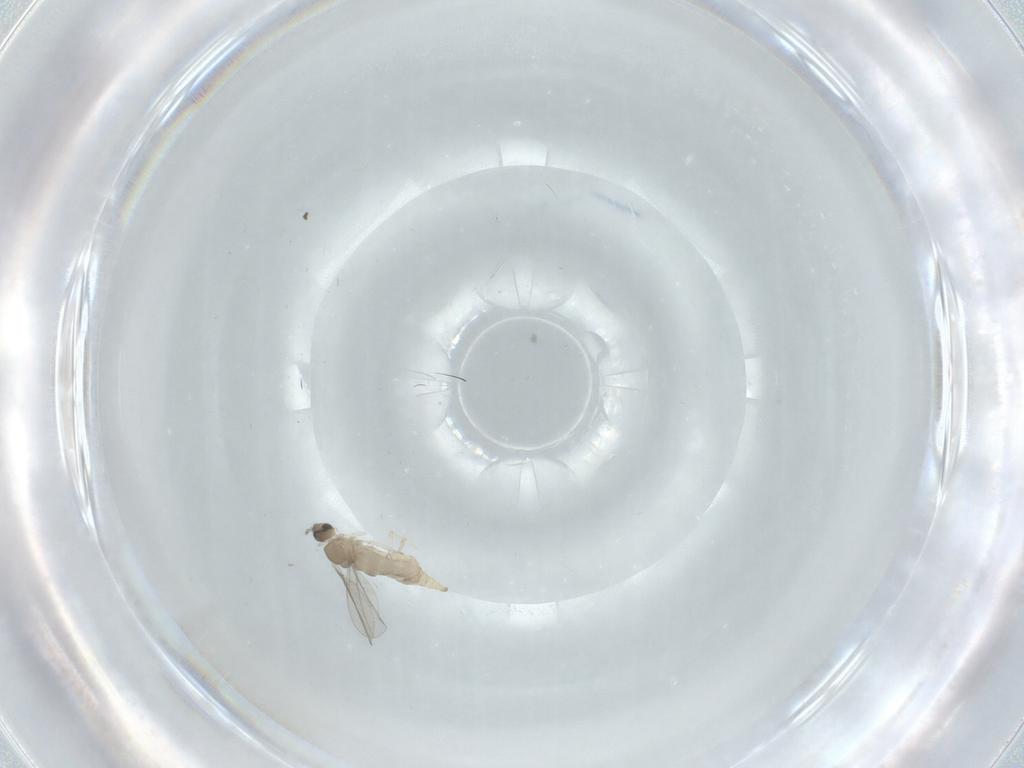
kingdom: Animalia
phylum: Arthropoda
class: Insecta
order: Diptera
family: Cecidomyiidae
